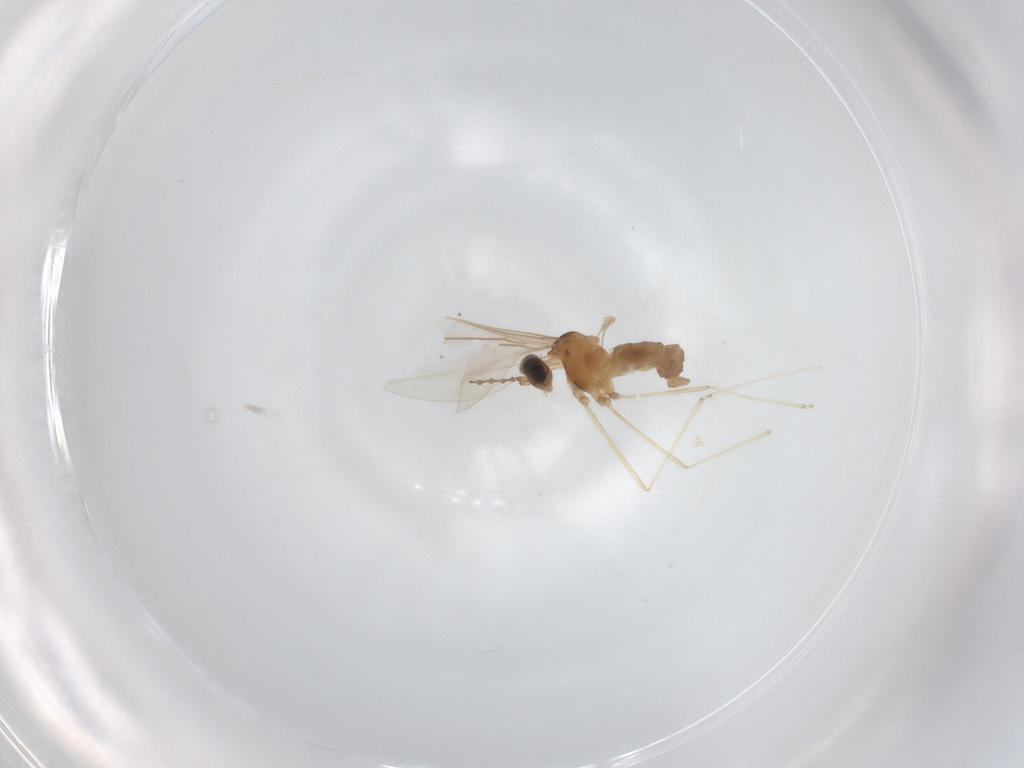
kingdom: Animalia
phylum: Arthropoda
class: Insecta
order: Diptera
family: Cecidomyiidae
